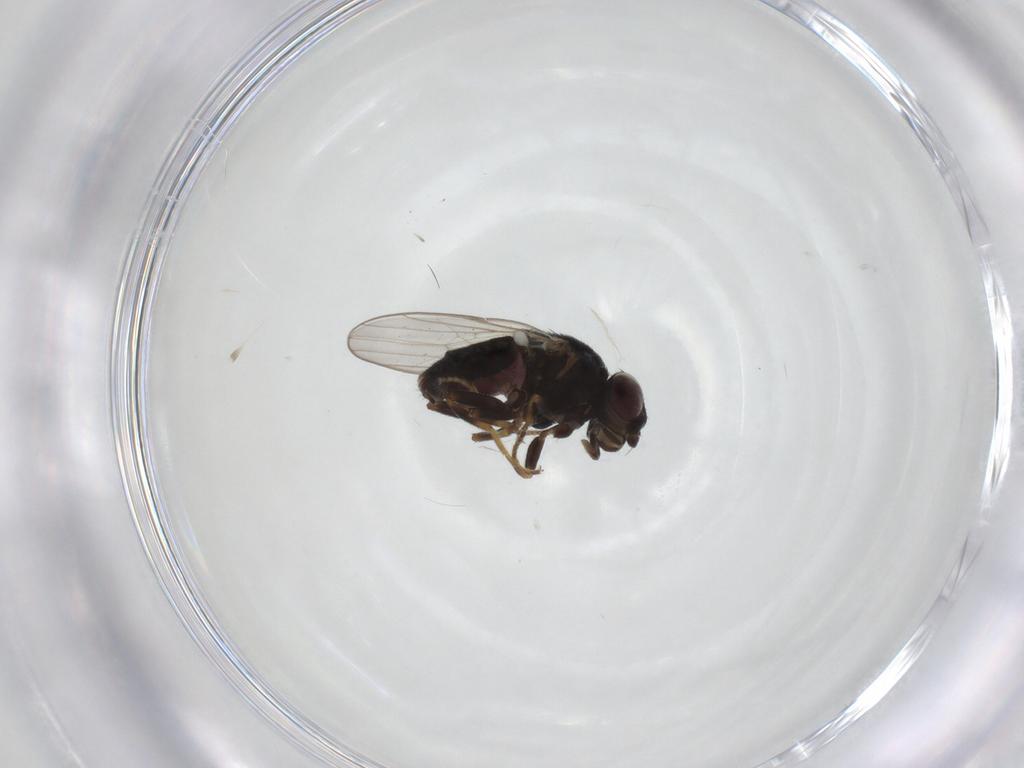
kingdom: Animalia
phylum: Arthropoda
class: Insecta
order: Diptera
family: Chloropidae
